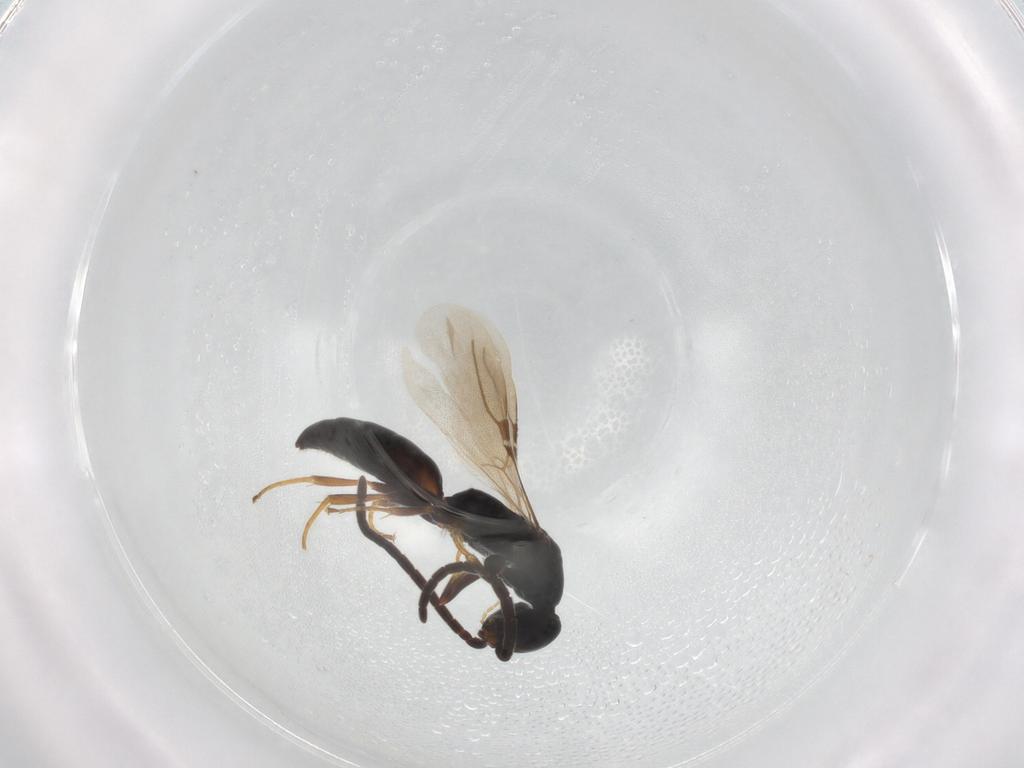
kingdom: Animalia
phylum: Arthropoda
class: Insecta
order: Hymenoptera
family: Bethylidae
